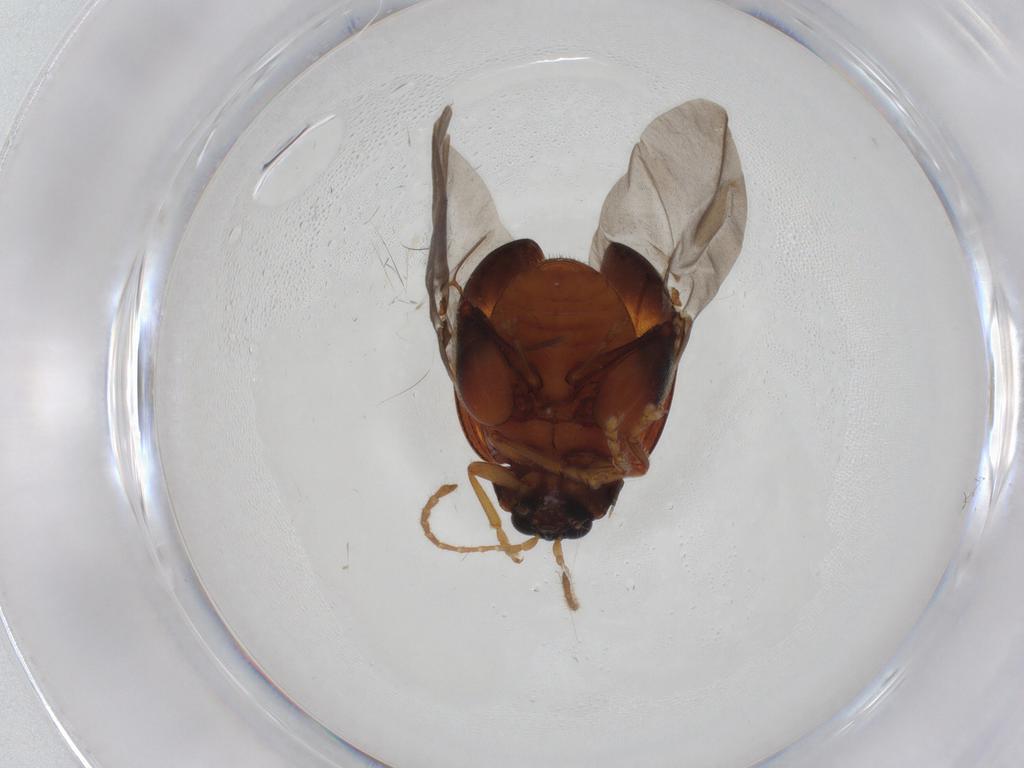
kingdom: Animalia
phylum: Arthropoda
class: Insecta
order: Coleoptera
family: Chrysomelidae
